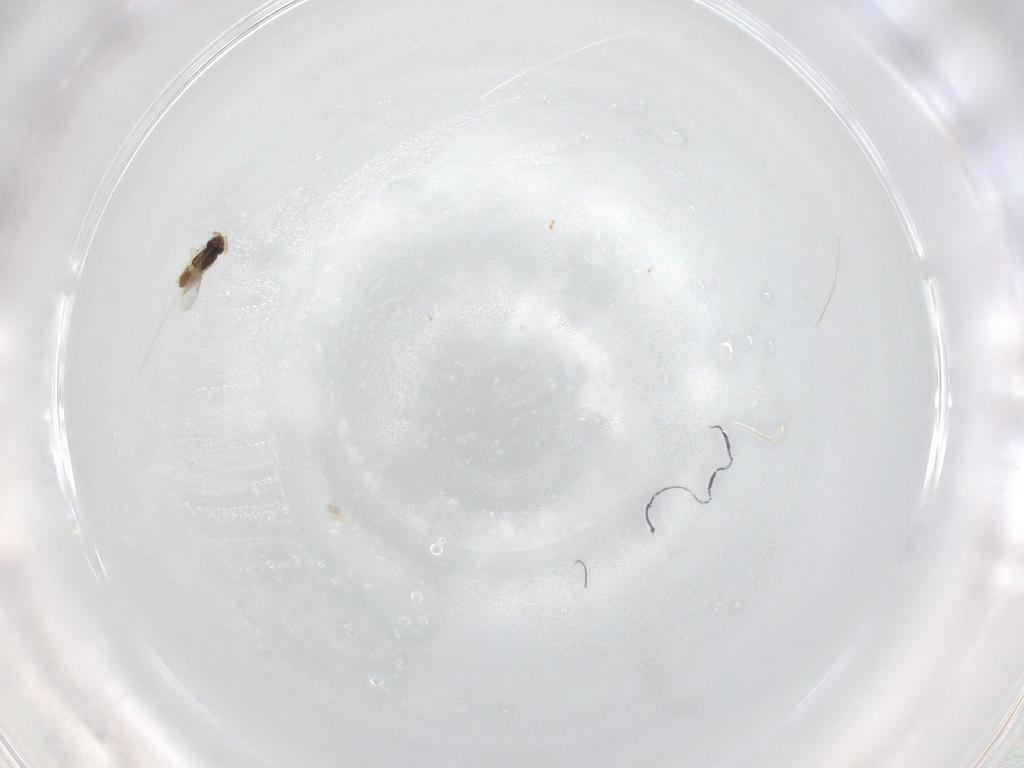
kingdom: Animalia
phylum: Arthropoda
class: Insecta
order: Hymenoptera
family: Encyrtidae
